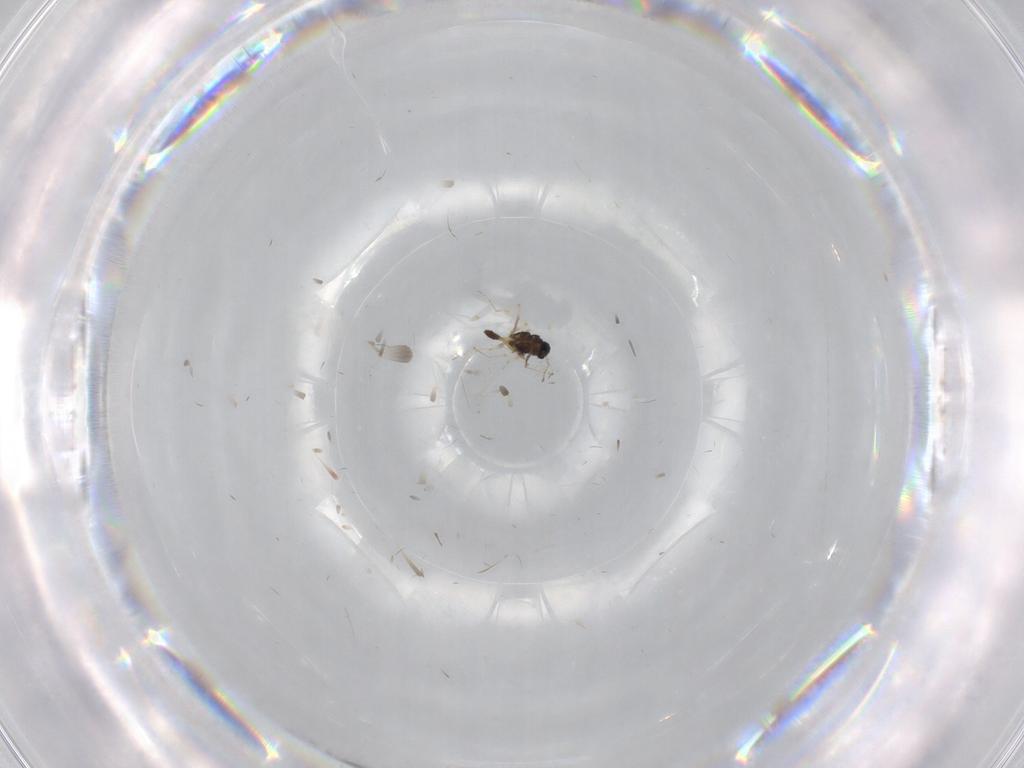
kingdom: Animalia
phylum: Arthropoda
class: Insecta
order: Diptera
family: Chironomidae
